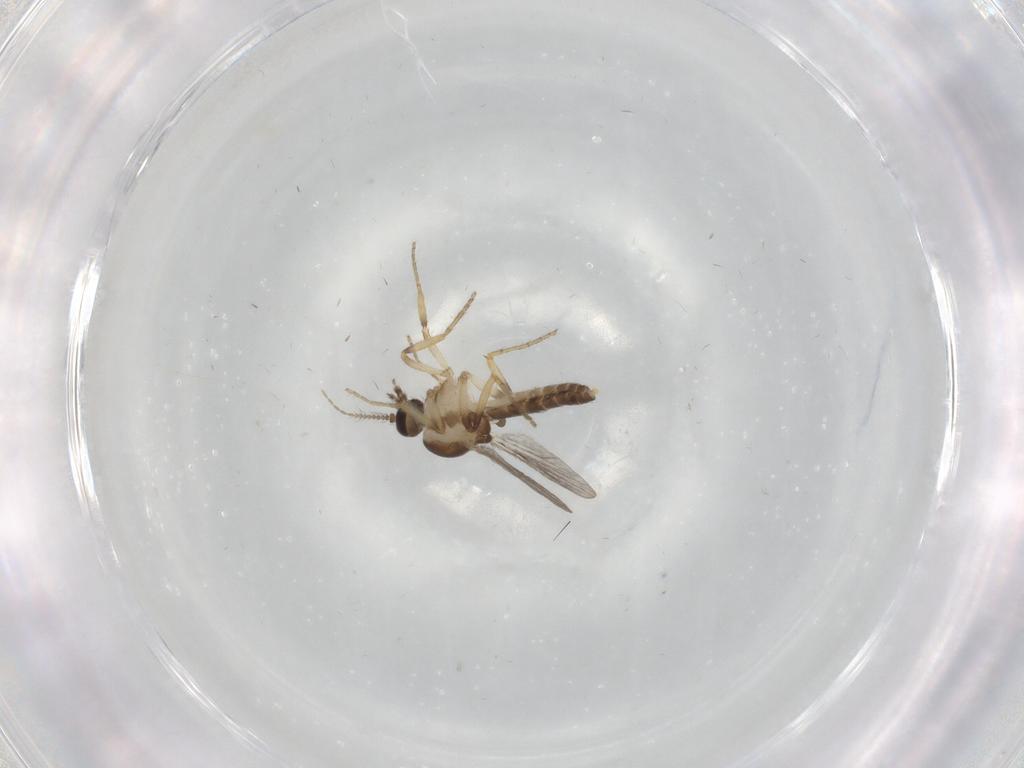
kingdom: Animalia
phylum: Arthropoda
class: Insecta
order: Diptera
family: Ceratopogonidae
